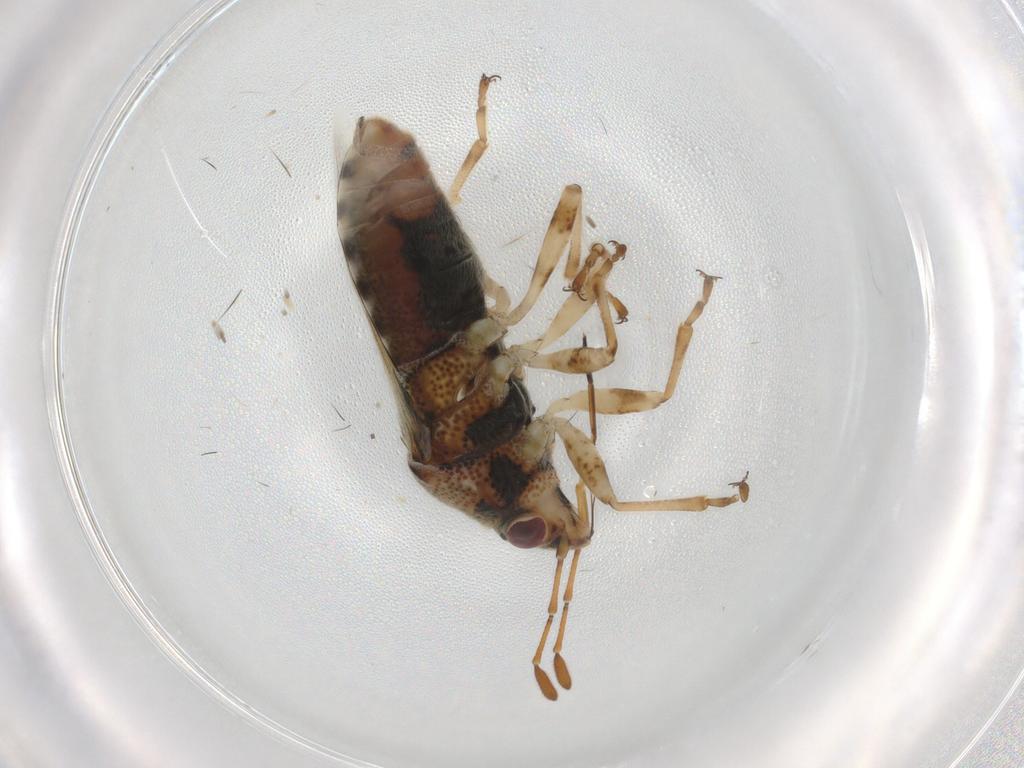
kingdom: Animalia
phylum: Arthropoda
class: Insecta
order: Hemiptera
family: Lygaeidae
